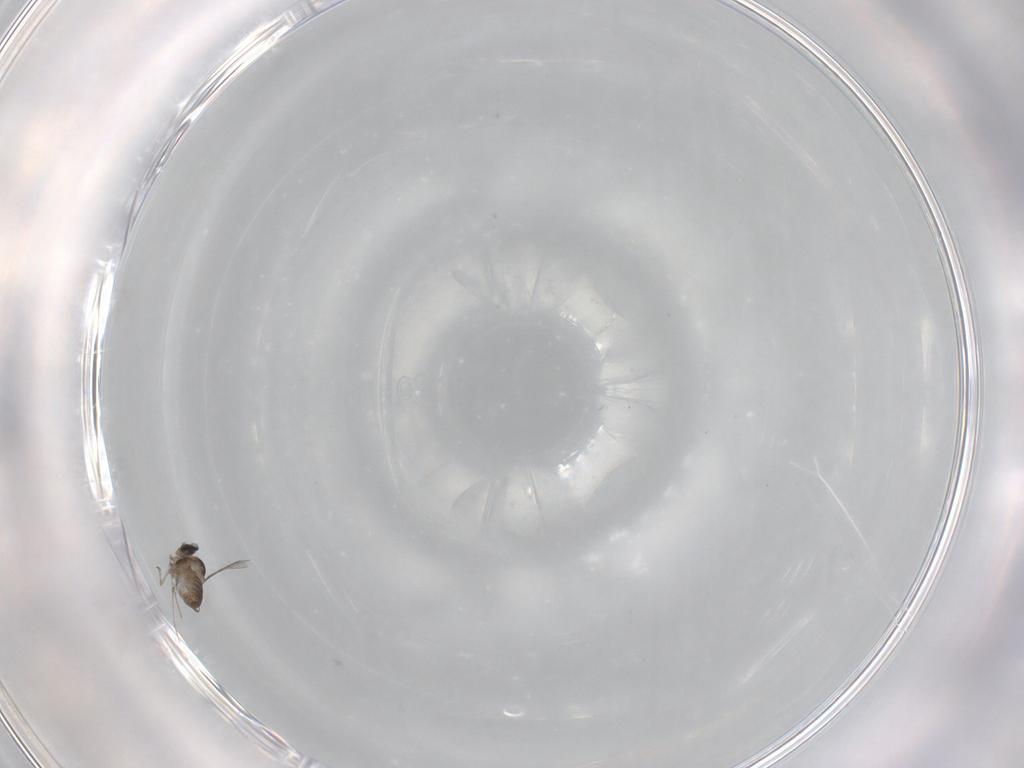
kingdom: Animalia
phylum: Arthropoda
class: Insecta
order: Diptera
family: Cecidomyiidae
